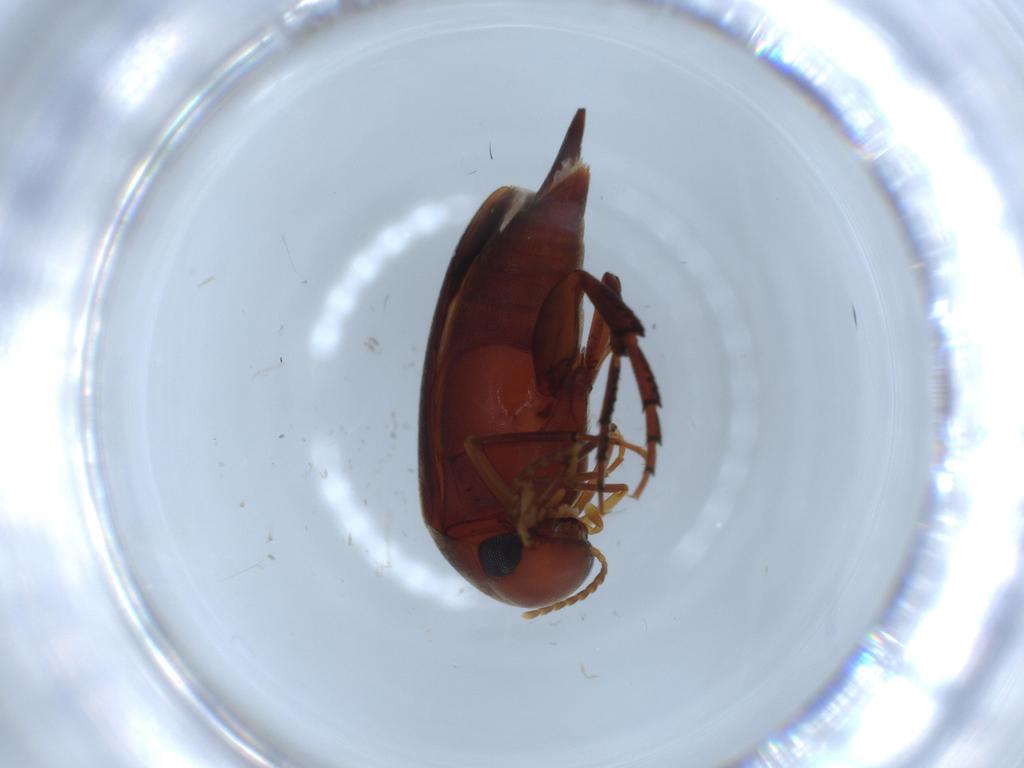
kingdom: Animalia
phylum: Arthropoda
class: Insecta
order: Coleoptera
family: Mordellidae
